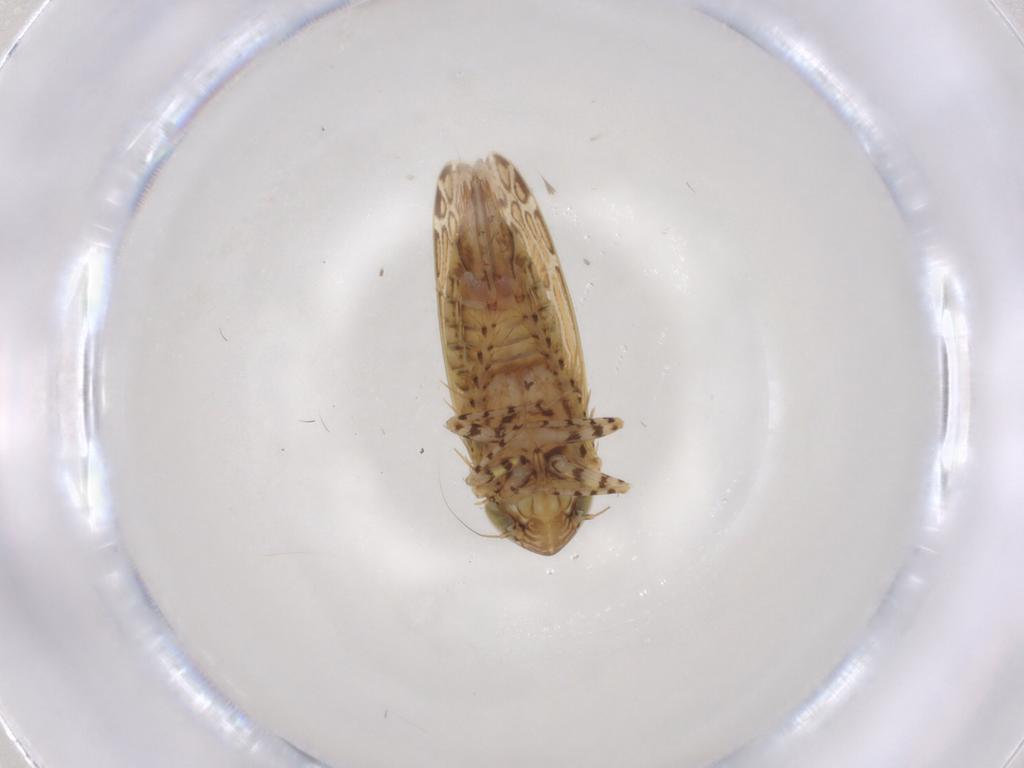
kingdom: Animalia
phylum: Arthropoda
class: Insecta
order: Hemiptera
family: Cicadellidae
